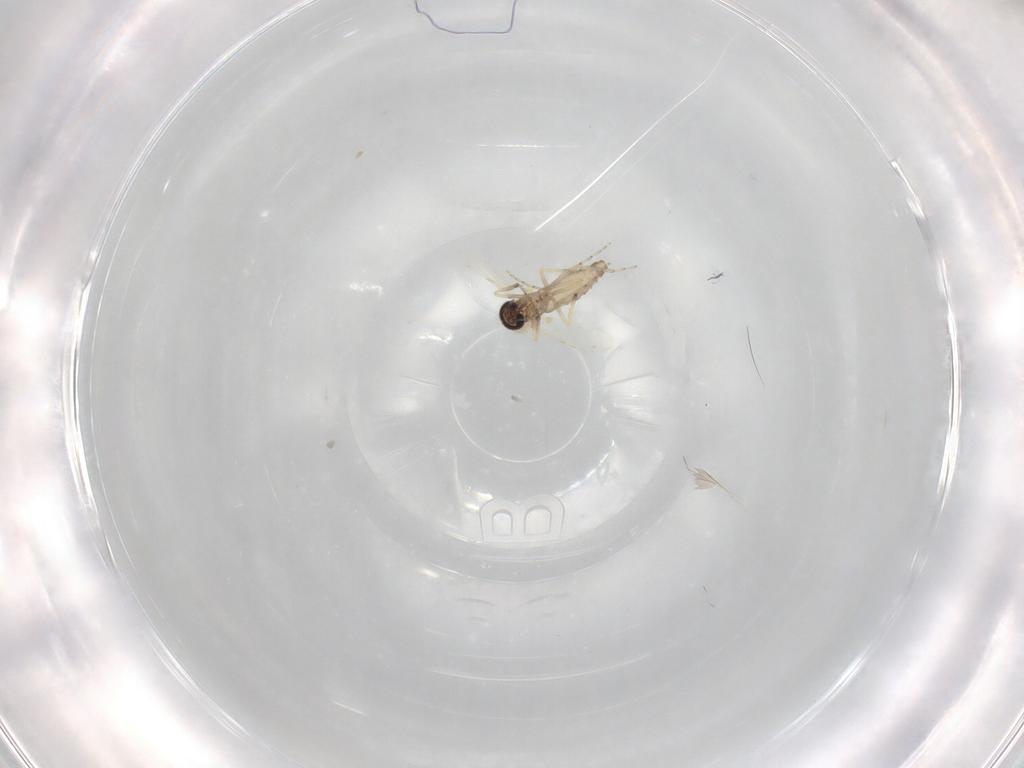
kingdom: Animalia
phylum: Arthropoda
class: Insecta
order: Diptera
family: Ceratopogonidae
